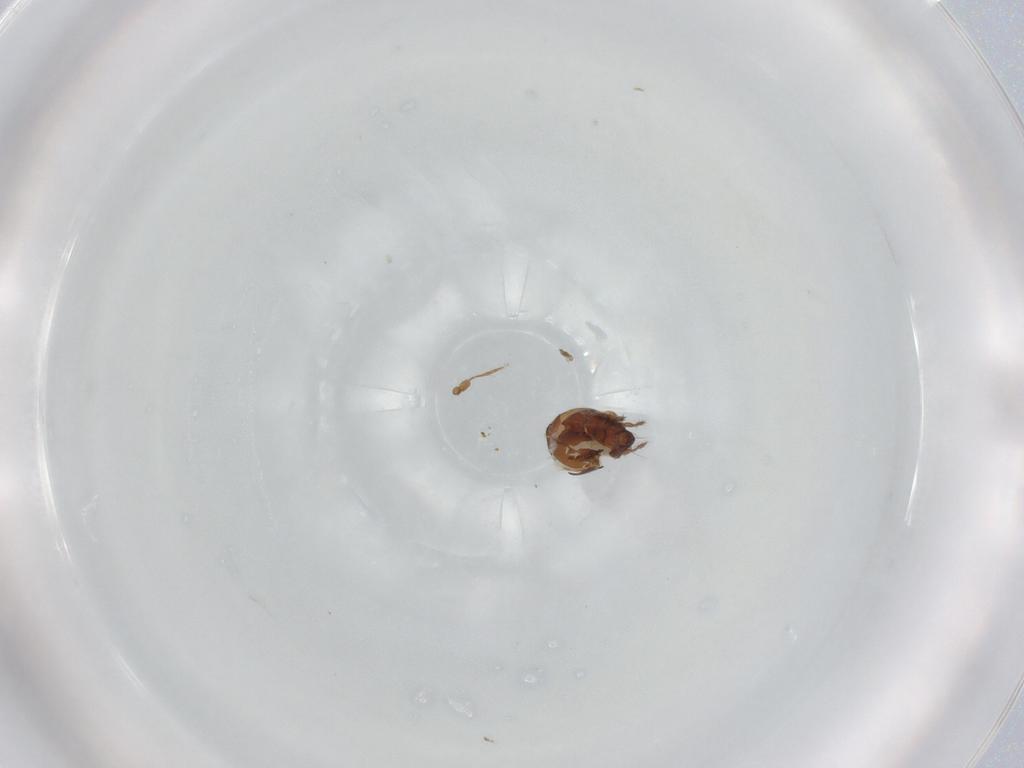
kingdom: Animalia
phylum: Arthropoda
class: Arachnida
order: Sarcoptiformes
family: Mochlozetidae
